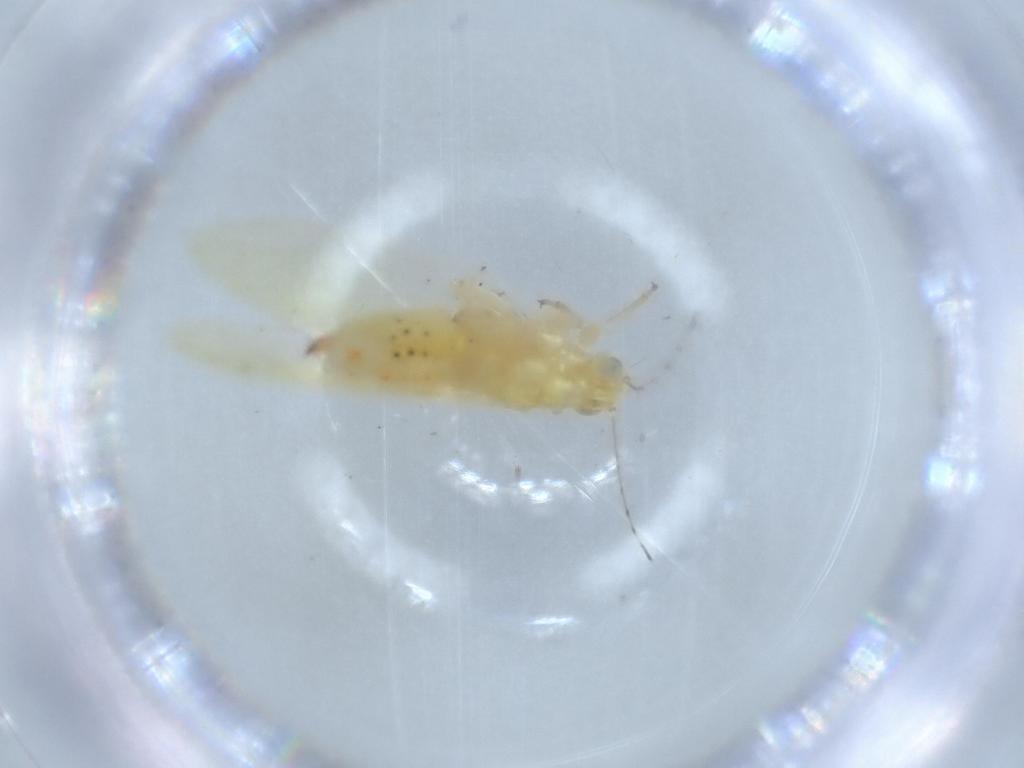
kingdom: Animalia
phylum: Arthropoda
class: Insecta
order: Hemiptera
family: Triozidae
